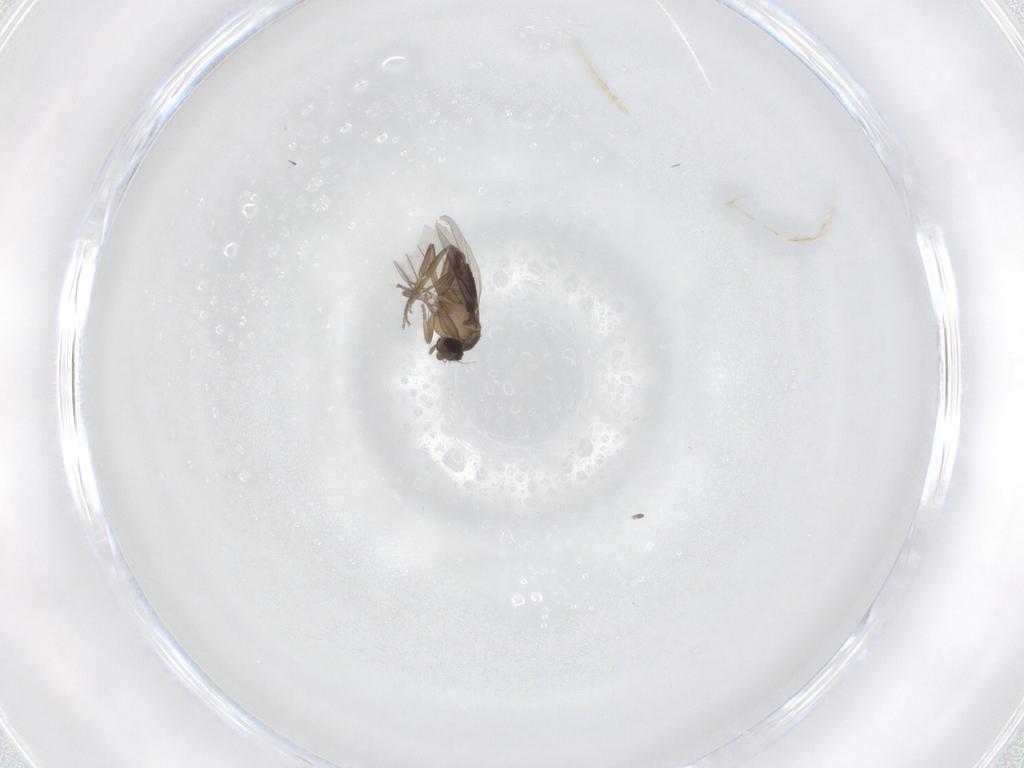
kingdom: Animalia
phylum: Arthropoda
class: Insecta
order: Diptera
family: Phoridae
